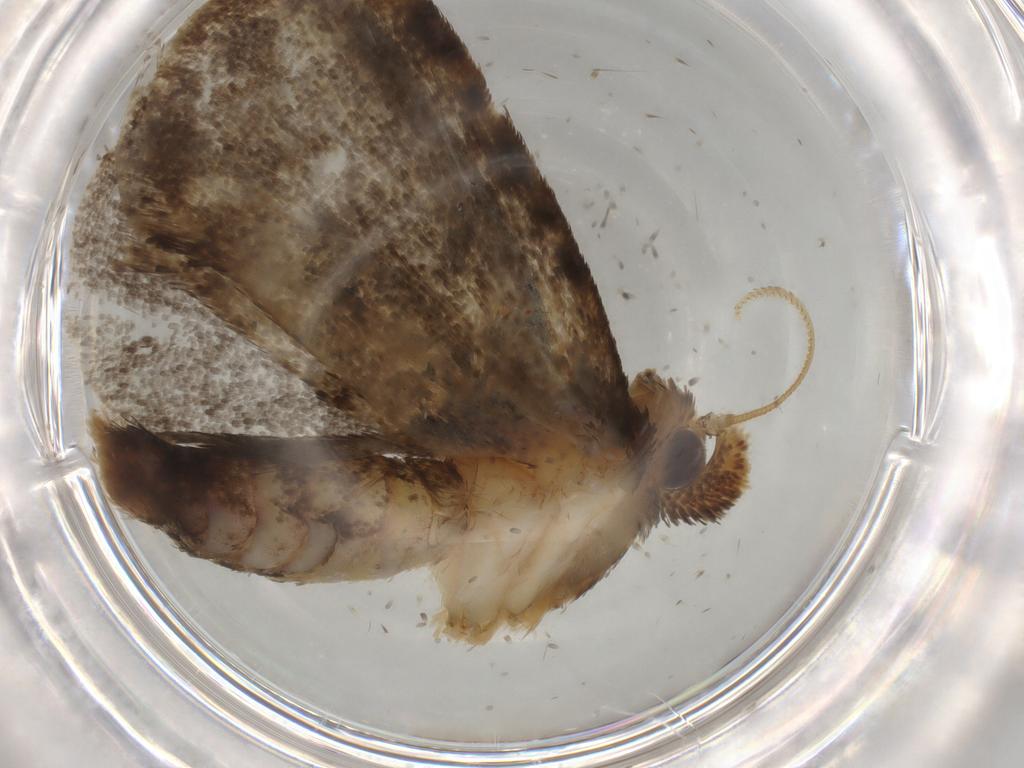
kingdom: Animalia
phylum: Arthropoda
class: Insecta
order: Lepidoptera
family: Tineidae
